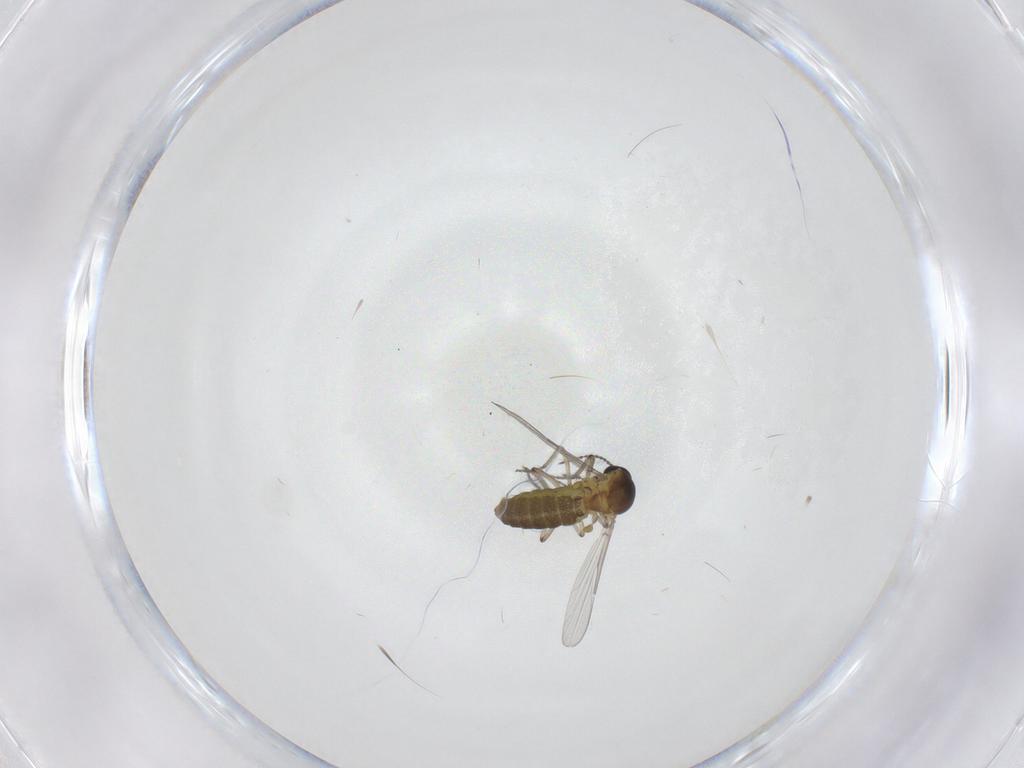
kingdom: Animalia
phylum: Arthropoda
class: Insecta
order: Diptera
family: Ceratopogonidae
